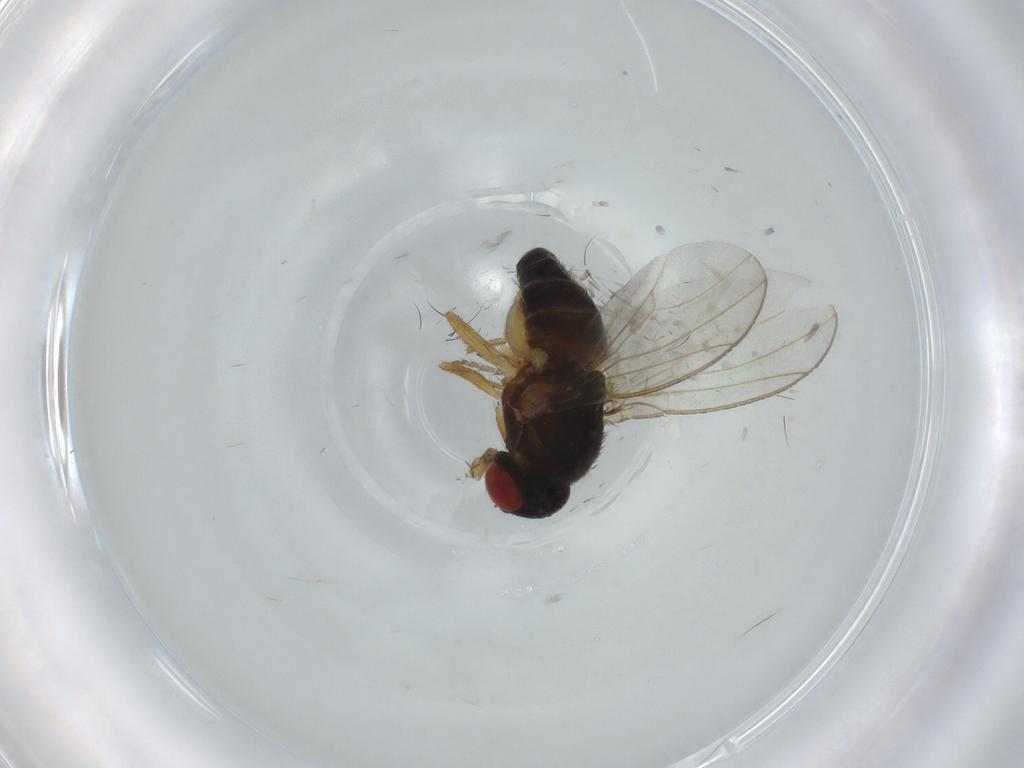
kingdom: Animalia
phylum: Arthropoda
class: Insecta
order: Diptera
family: Drosophilidae
